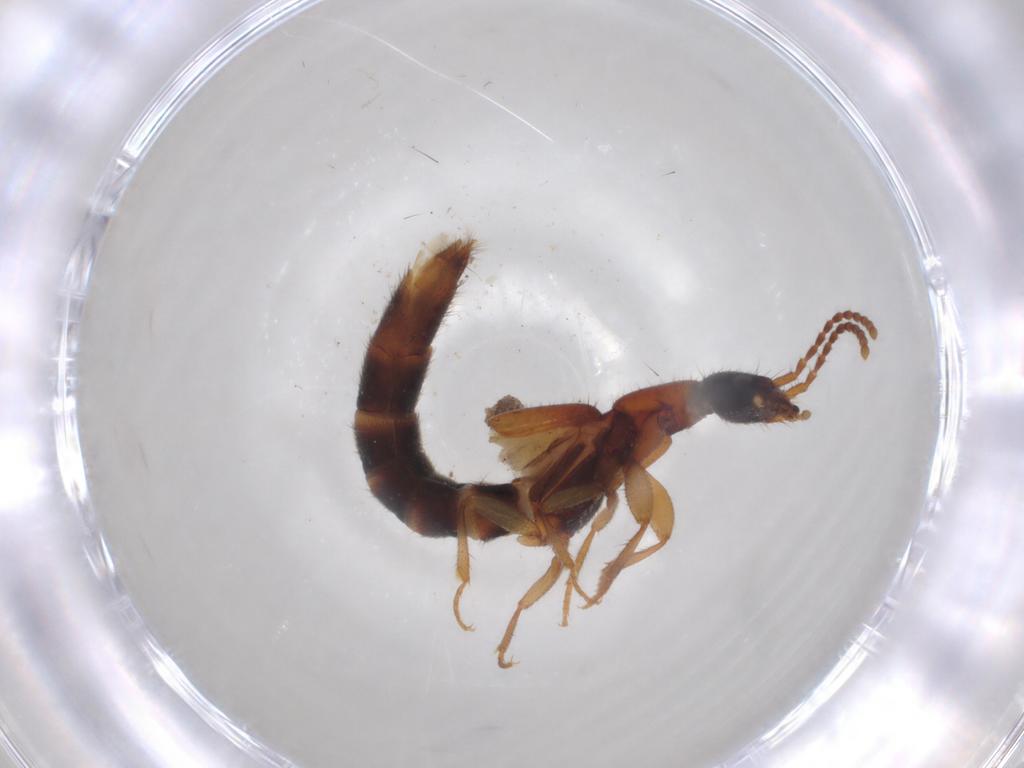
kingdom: Animalia
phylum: Arthropoda
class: Insecta
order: Coleoptera
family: Staphylinidae
